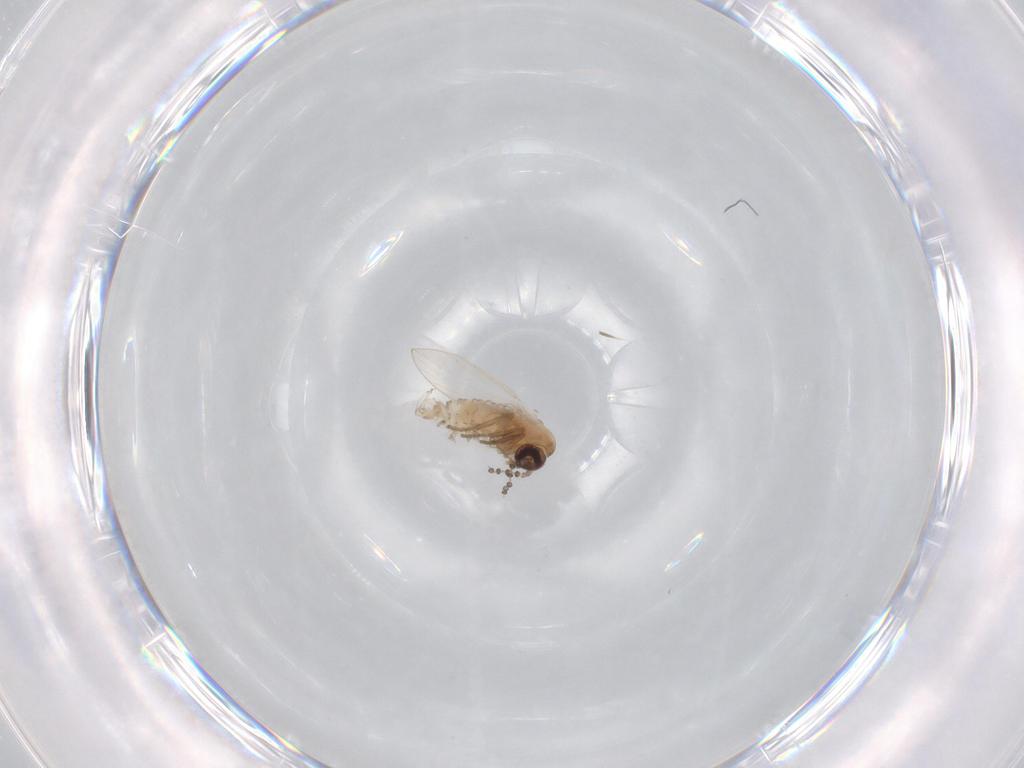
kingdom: Animalia
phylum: Arthropoda
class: Insecta
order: Diptera
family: Psychodidae
